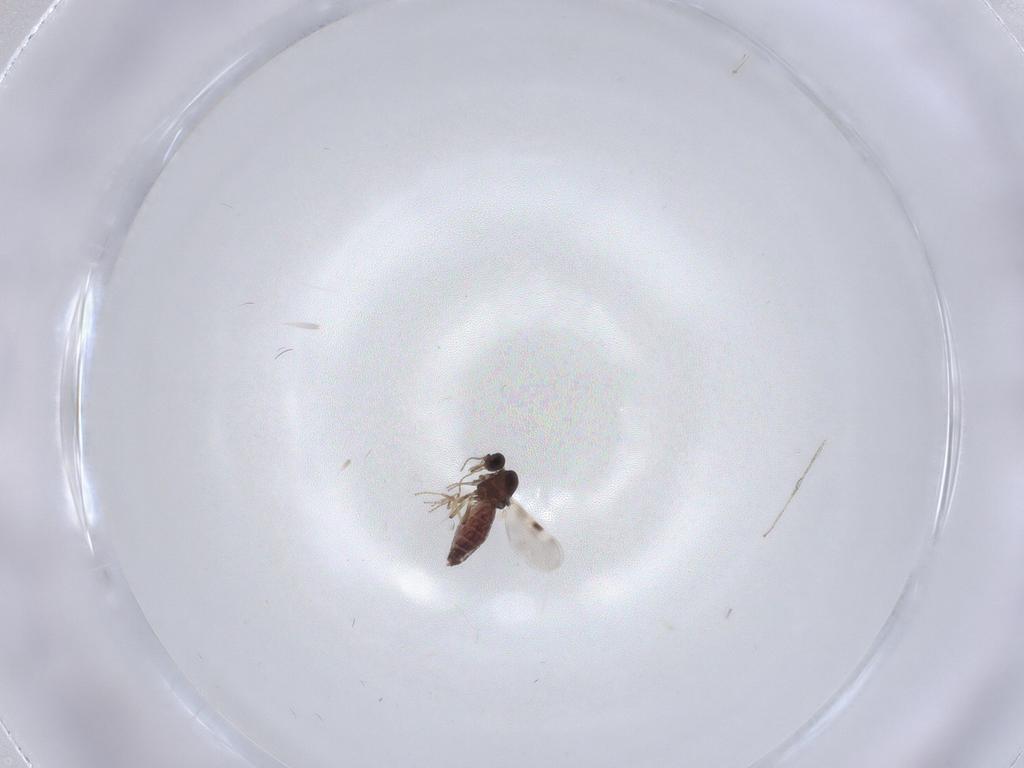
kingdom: Animalia
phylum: Arthropoda
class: Insecta
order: Diptera
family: Cecidomyiidae
